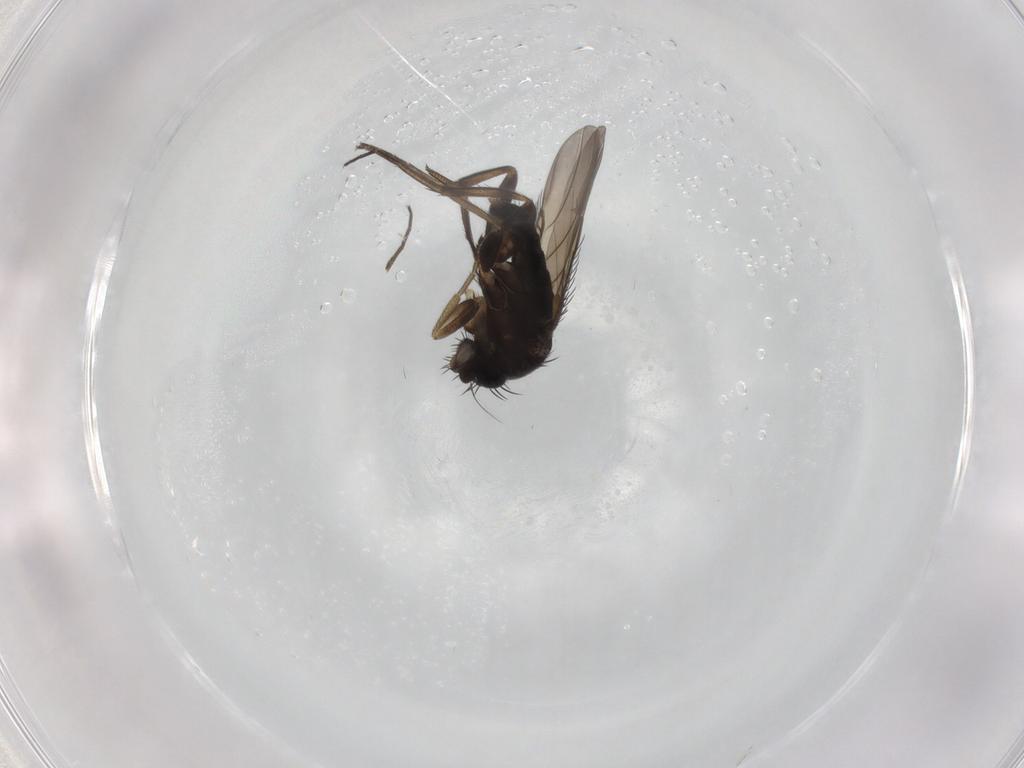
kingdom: Animalia
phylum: Arthropoda
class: Insecta
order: Diptera
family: Phoridae
